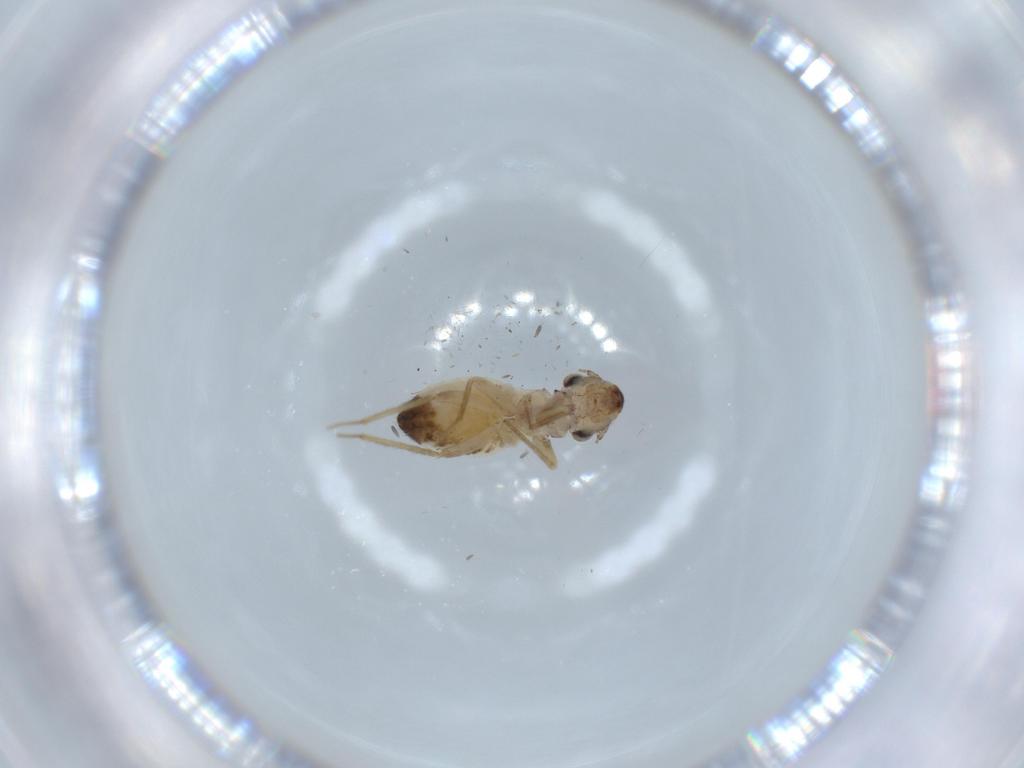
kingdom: Animalia
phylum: Arthropoda
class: Insecta
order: Psocodea
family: Lepidopsocidae
